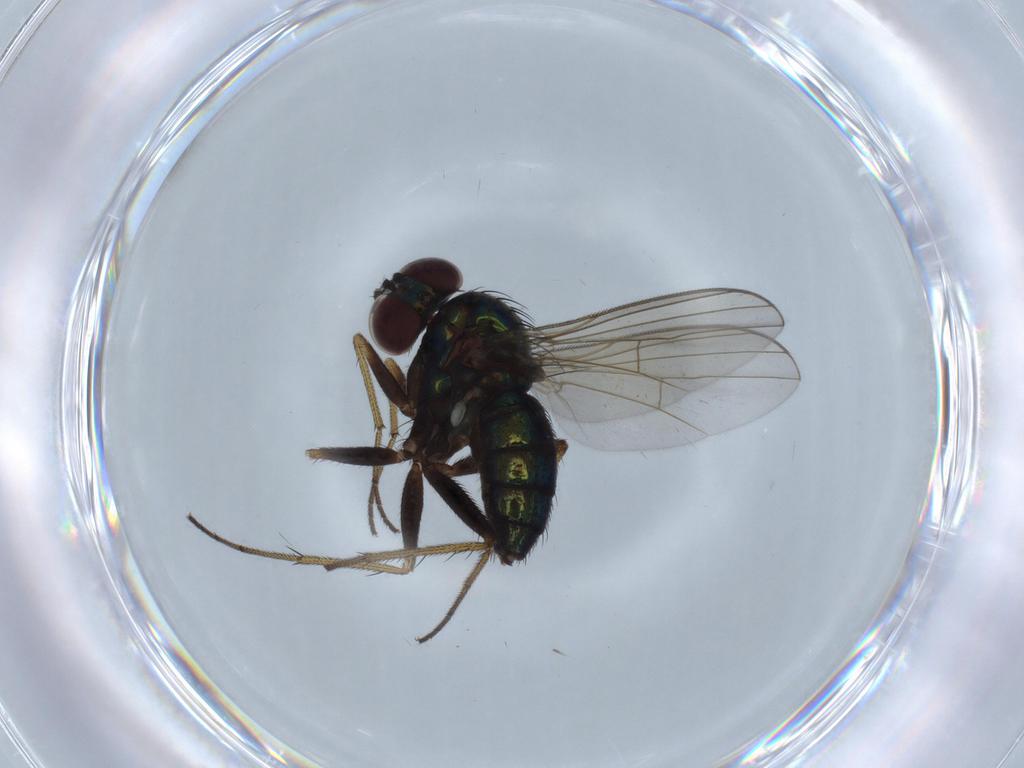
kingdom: Animalia
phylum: Arthropoda
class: Insecta
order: Diptera
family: Dolichopodidae
